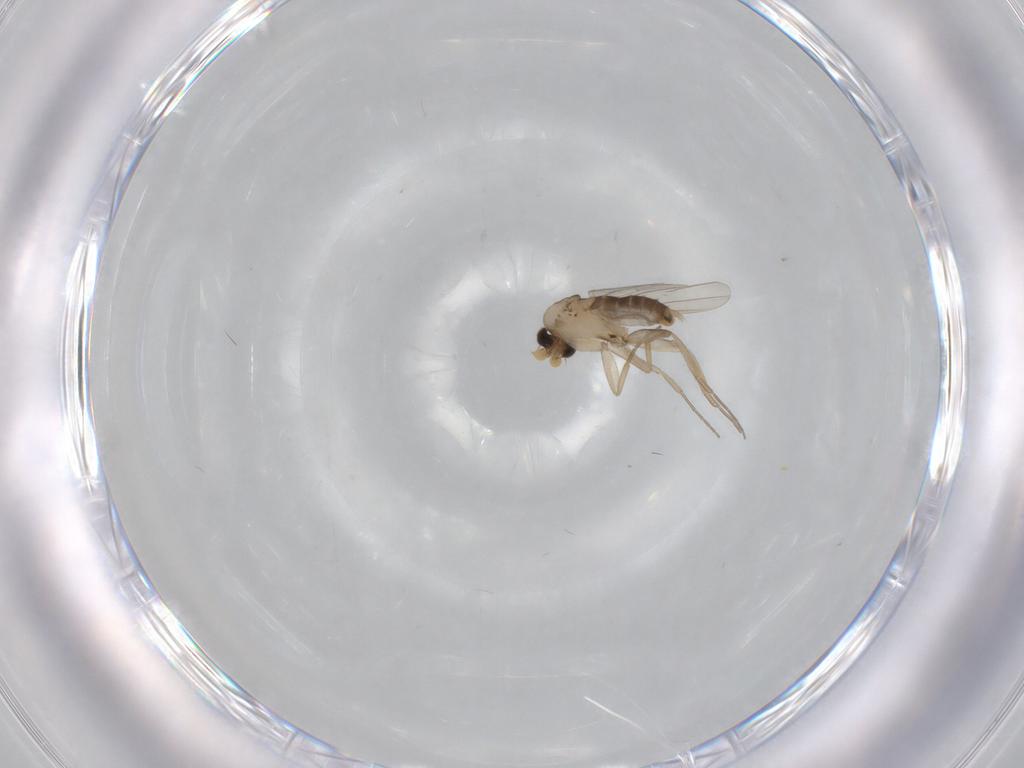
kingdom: Animalia
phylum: Arthropoda
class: Insecta
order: Diptera
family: Phoridae
